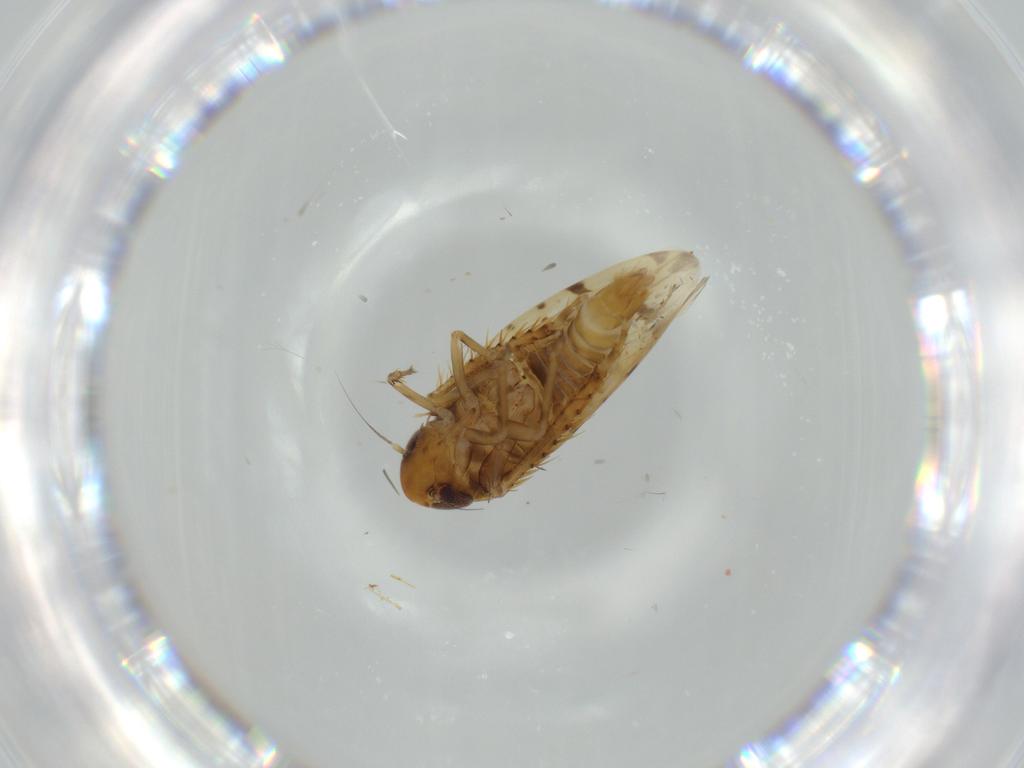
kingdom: Animalia
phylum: Arthropoda
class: Insecta
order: Hemiptera
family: Cicadellidae
